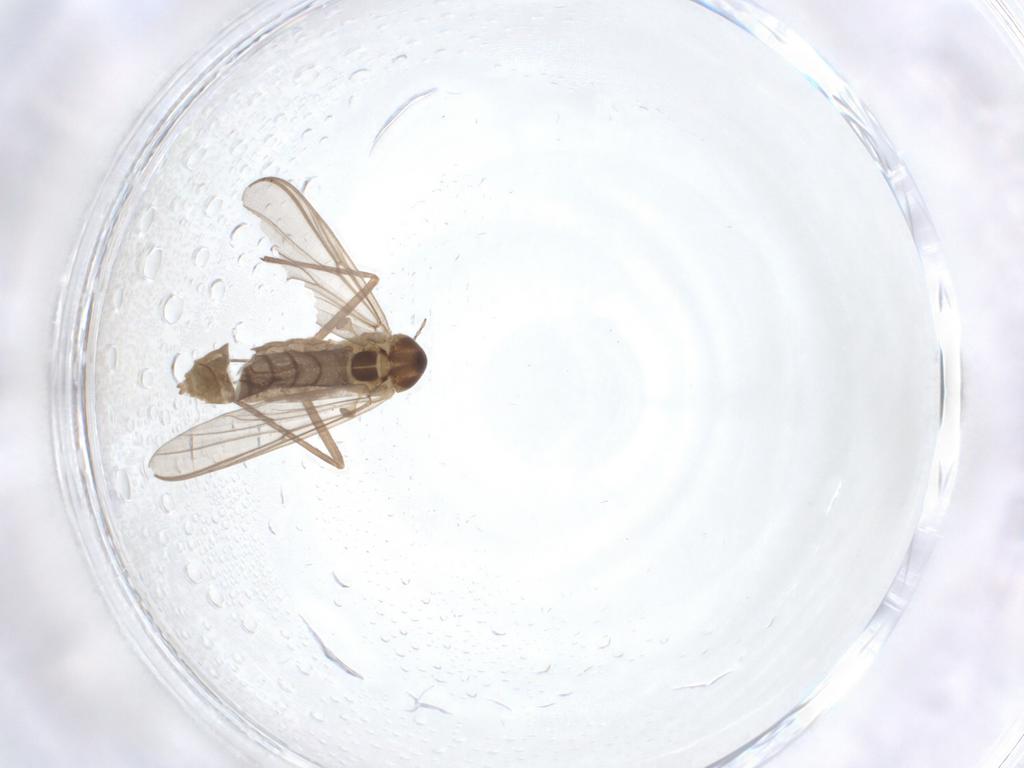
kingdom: Animalia
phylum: Arthropoda
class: Insecta
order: Diptera
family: Chironomidae
